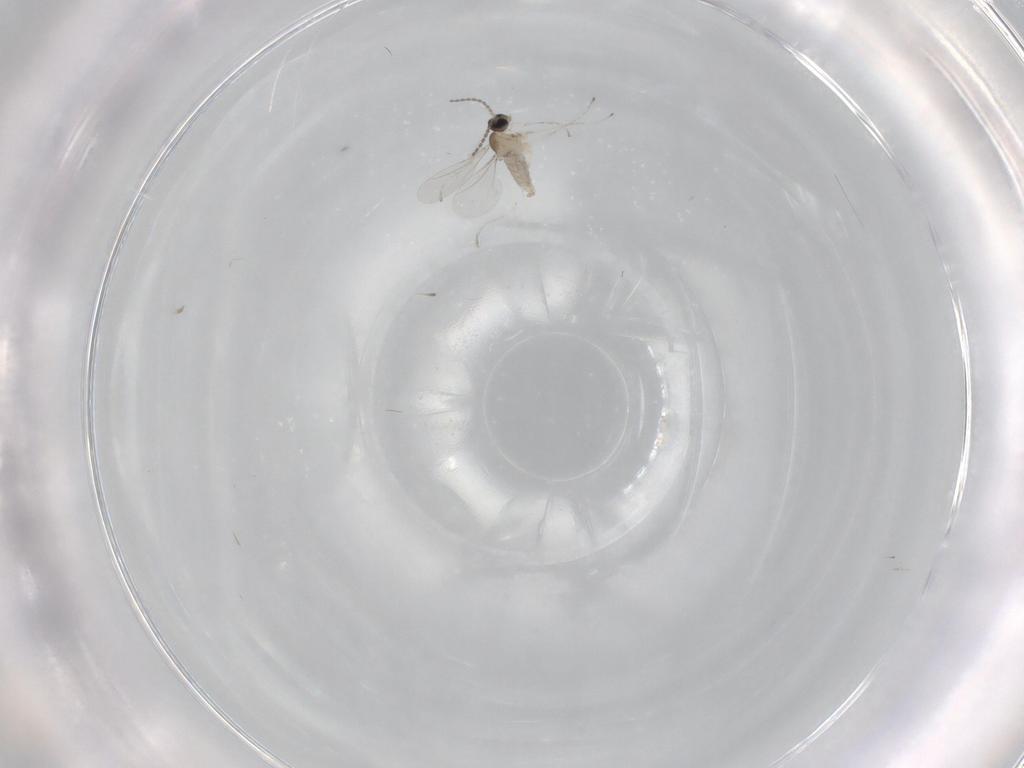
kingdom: Animalia
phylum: Arthropoda
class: Insecta
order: Diptera
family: Cecidomyiidae
